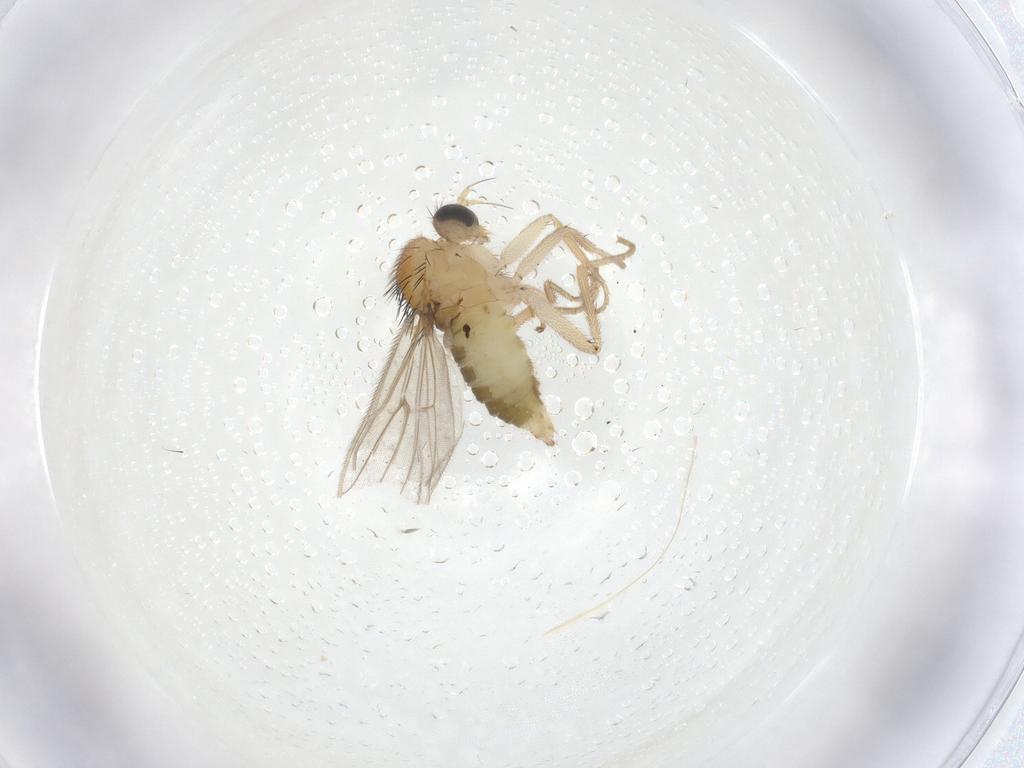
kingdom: Animalia
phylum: Arthropoda
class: Insecta
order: Diptera
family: Hybotidae
